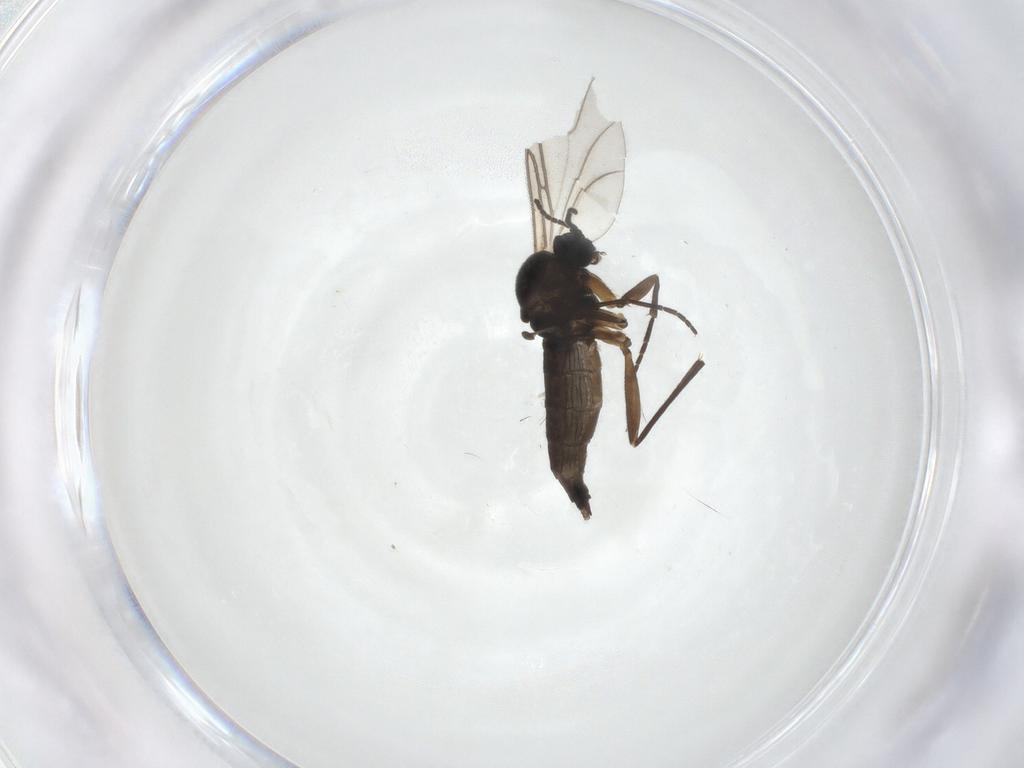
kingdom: Animalia
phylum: Arthropoda
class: Insecta
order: Diptera
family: Sciaridae
